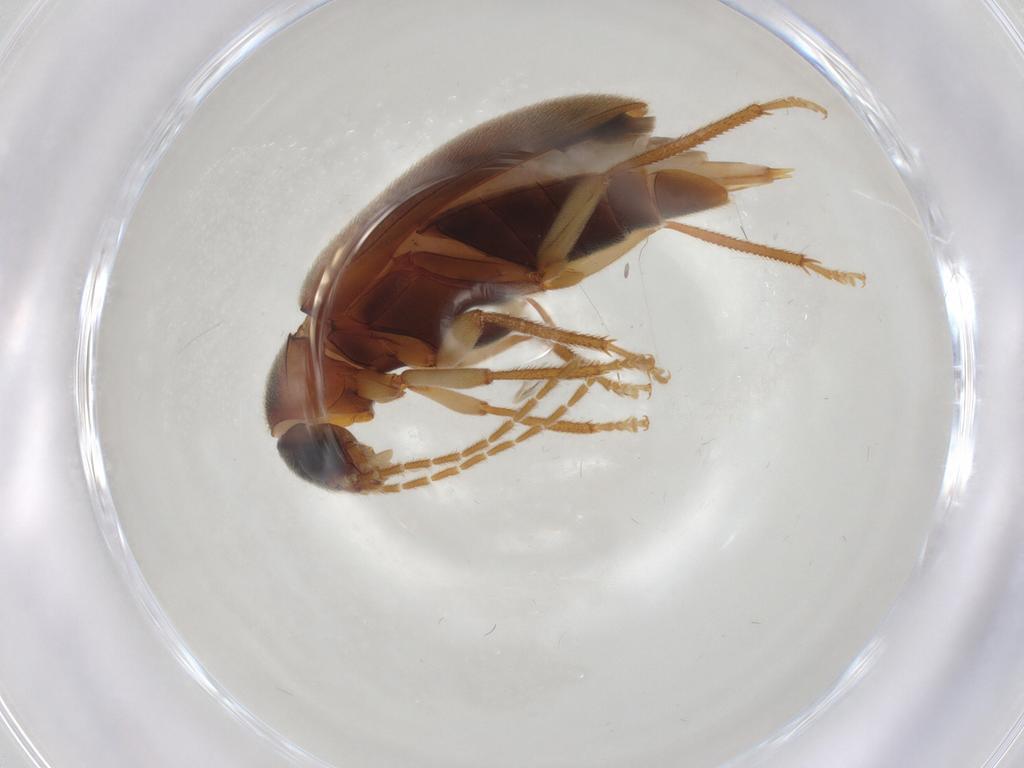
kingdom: Animalia
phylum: Arthropoda
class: Insecta
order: Coleoptera
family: Ptilodactylidae
